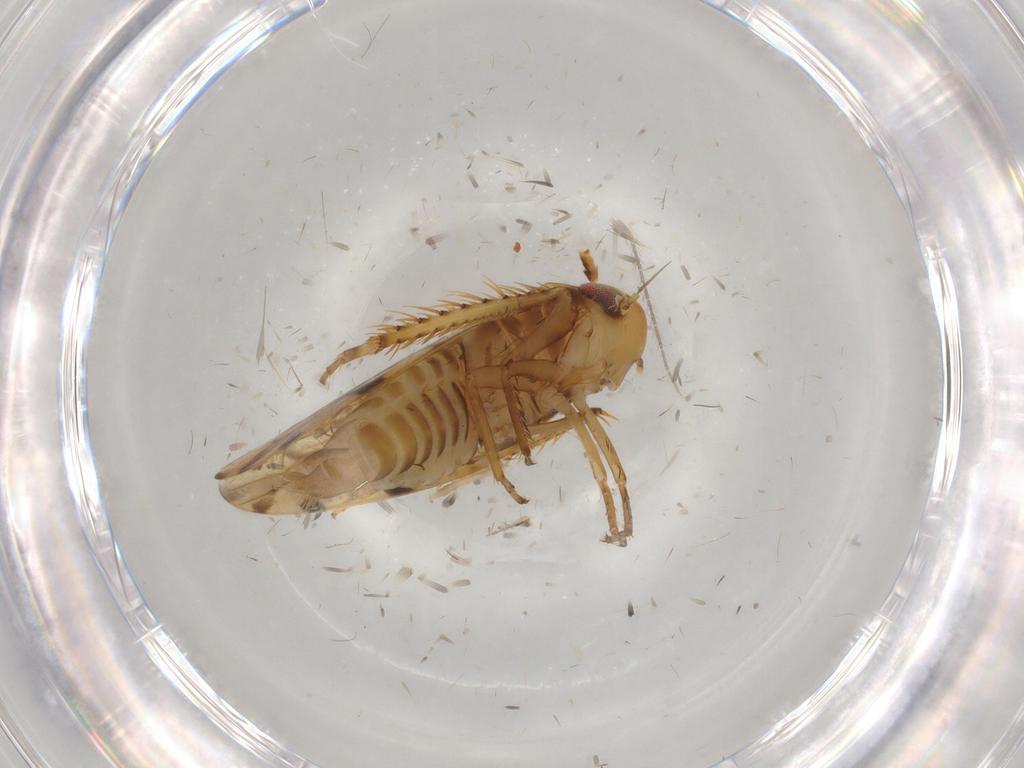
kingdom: Animalia
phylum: Arthropoda
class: Insecta
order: Hemiptera
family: Cicadellidae
